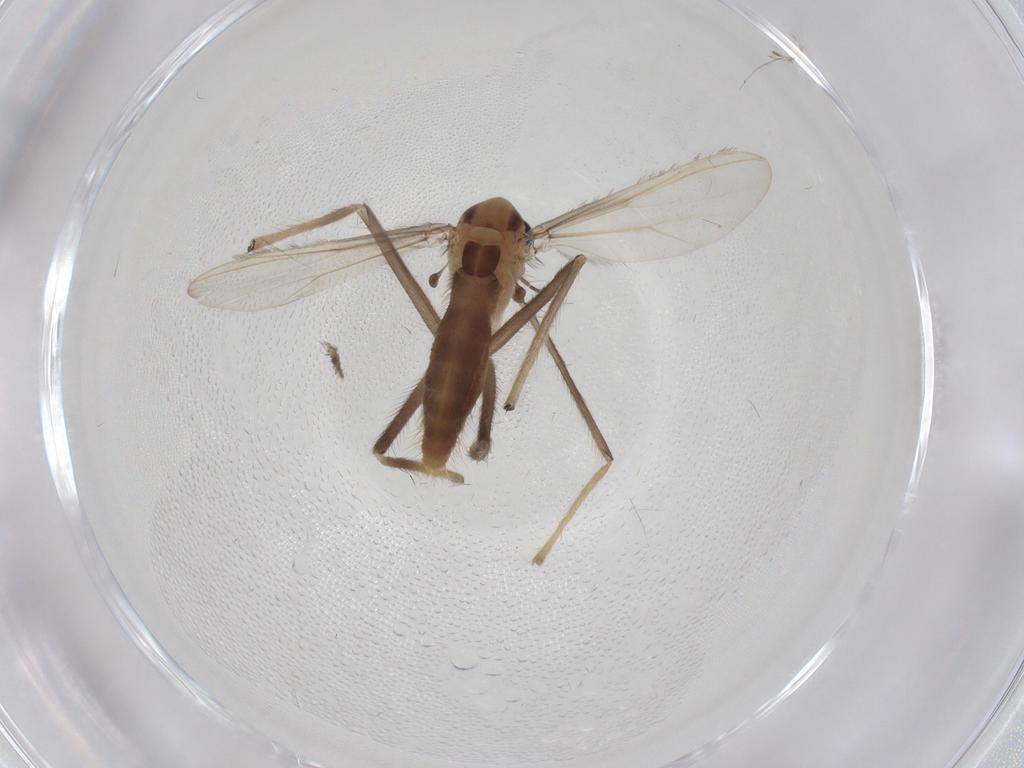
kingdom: Animalia
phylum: Arthropoda
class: Insecta
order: Diptera
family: Chironomidae
